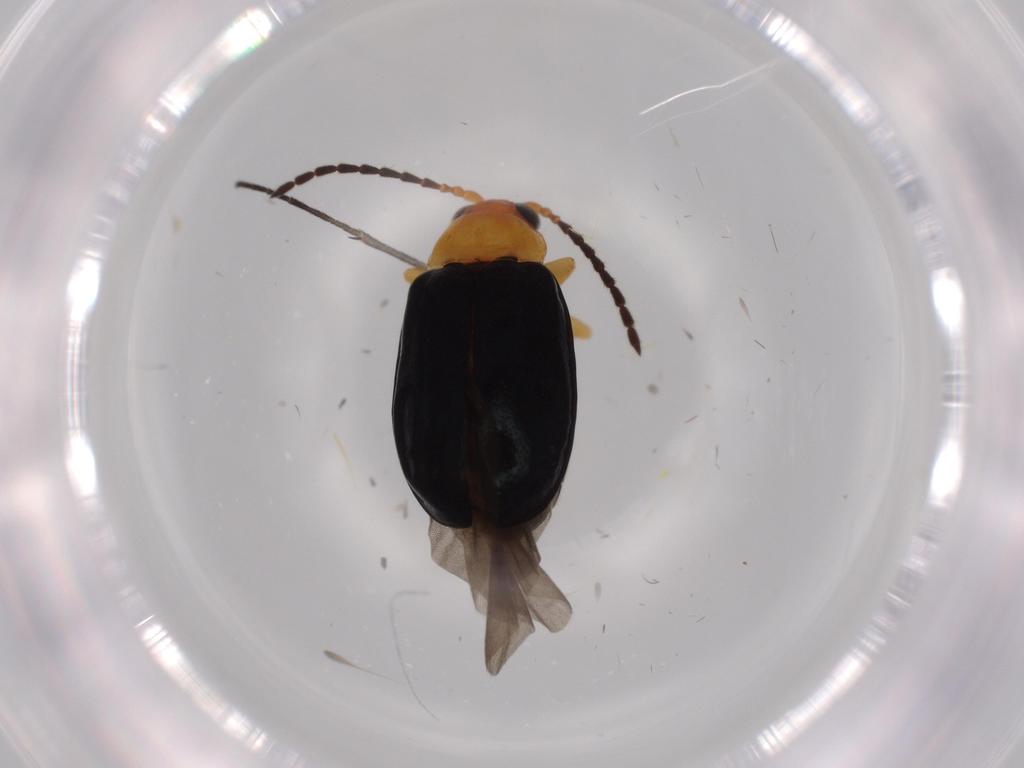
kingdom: Animalia
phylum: Arthropoda
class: Insecta
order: Coleoptera
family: Chrysomelidae
